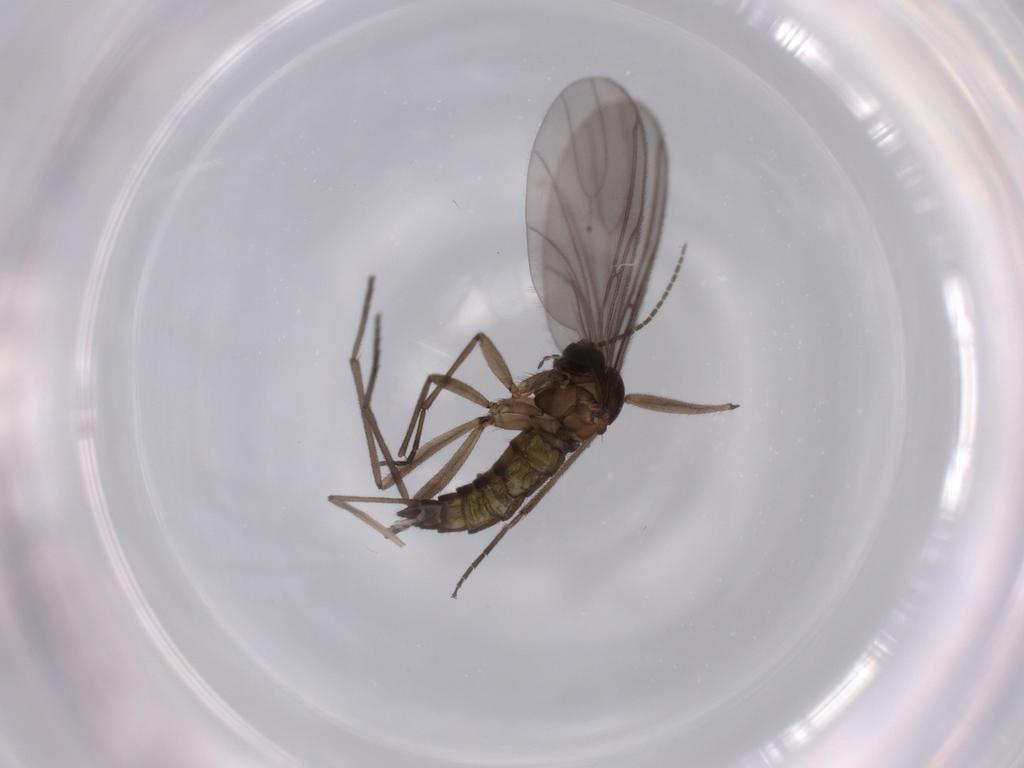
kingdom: Animalia
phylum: Arthropoda
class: Insecta
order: Diptera
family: Sciaridae
